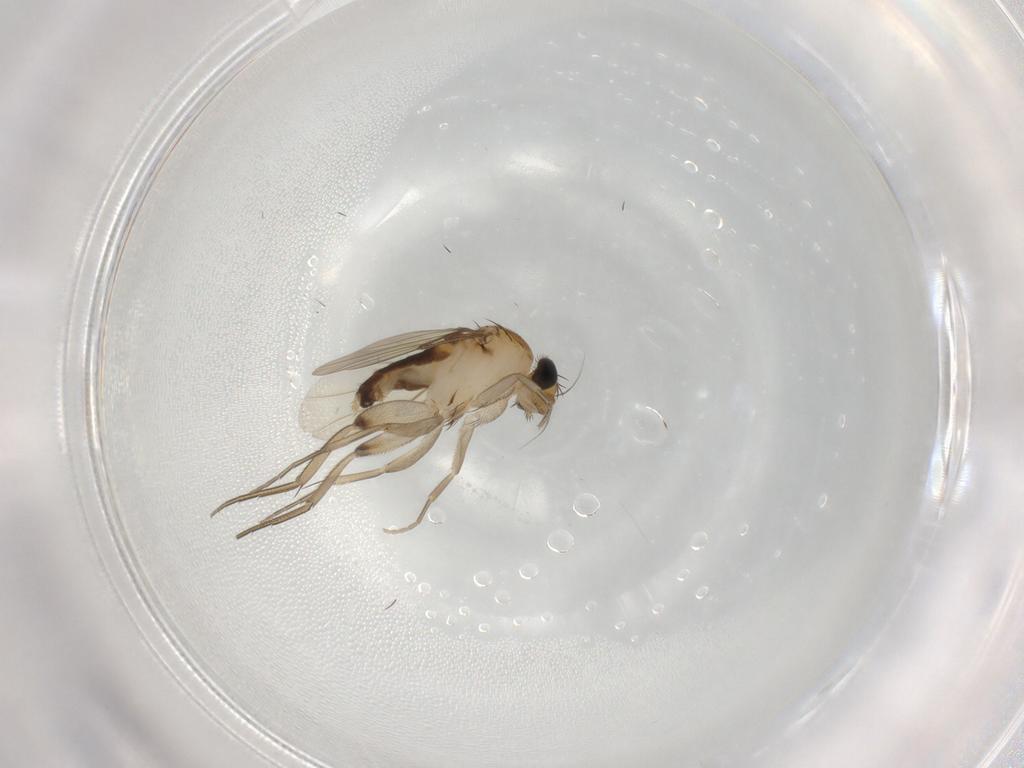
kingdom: Animalia
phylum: Arthropoda
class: Insecta
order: Diptera
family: Phoridae
